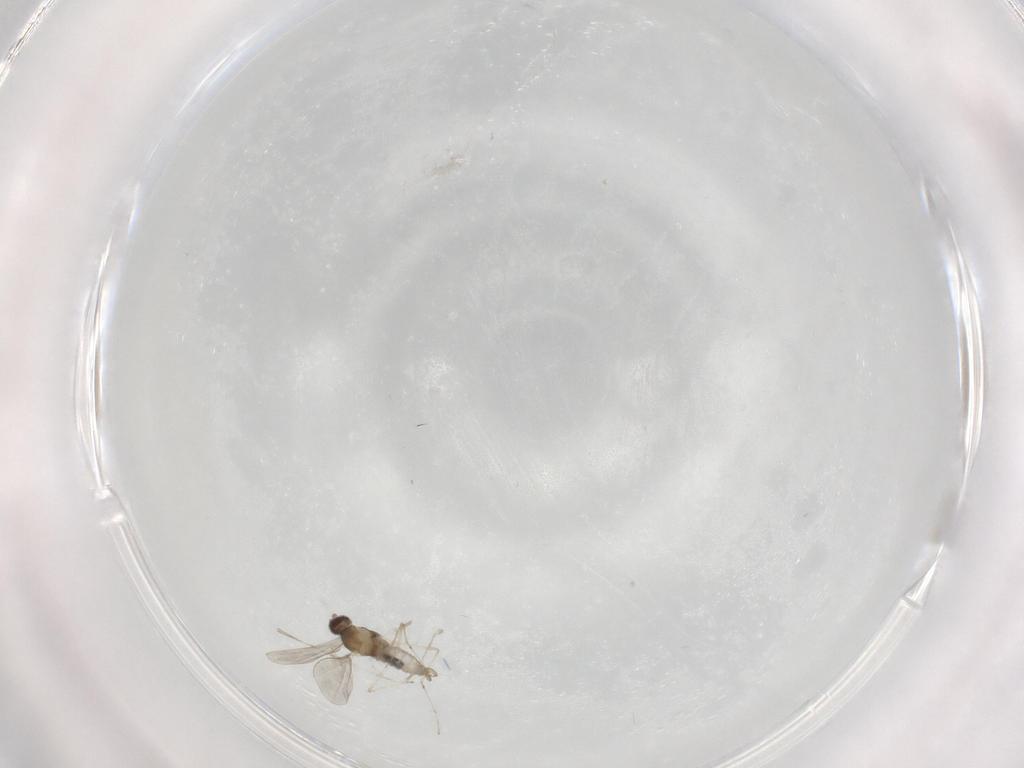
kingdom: Animalia
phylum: Arthropoda
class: Insecta
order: Diptera
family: Cecidomyiidae
